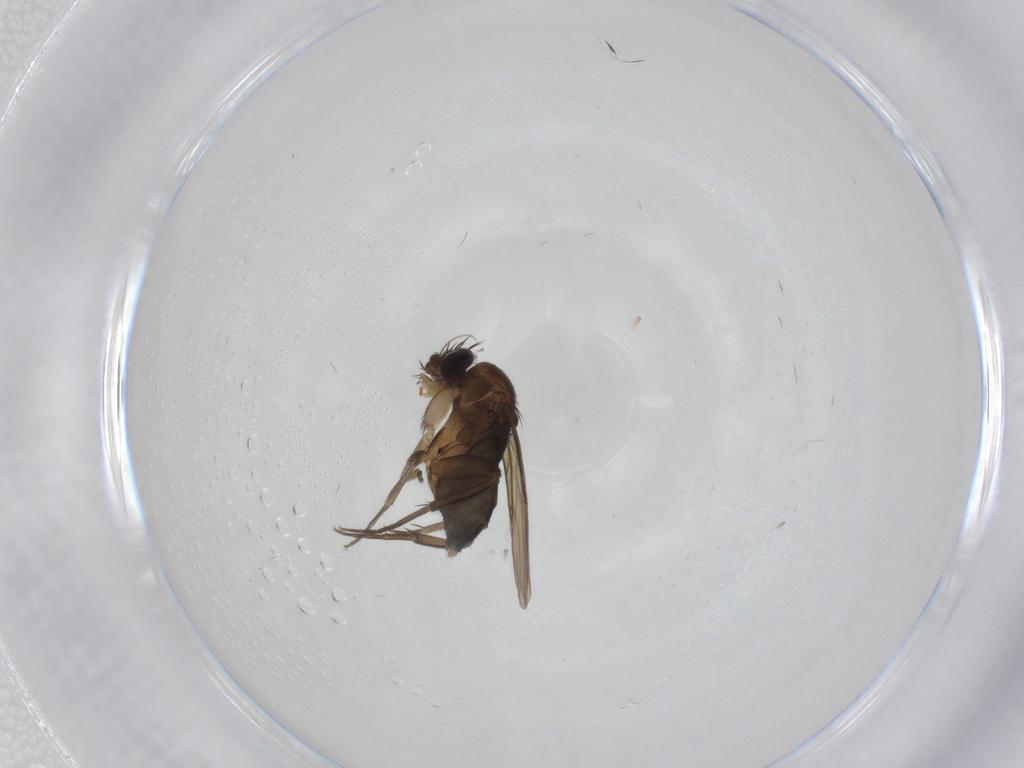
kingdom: Animalia
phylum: Arthropoda
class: Insecta
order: Diptera
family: Phoridae
